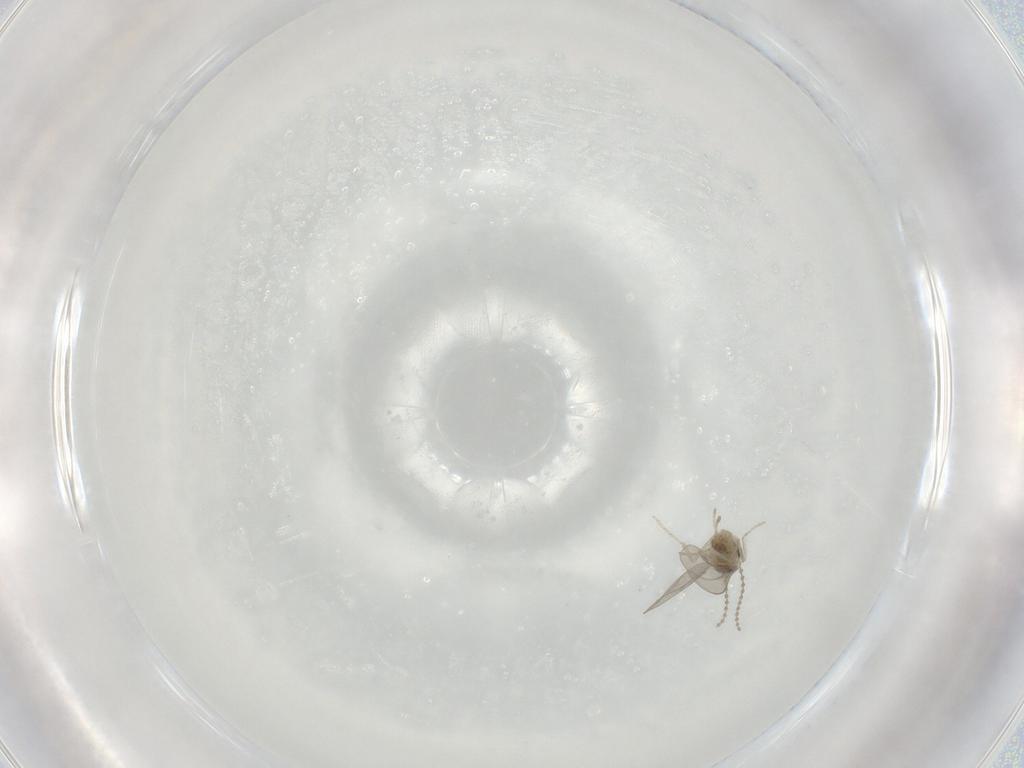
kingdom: Animalia
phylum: Arthropoda
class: Insecta
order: Diptera
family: Cecidomyiidae
